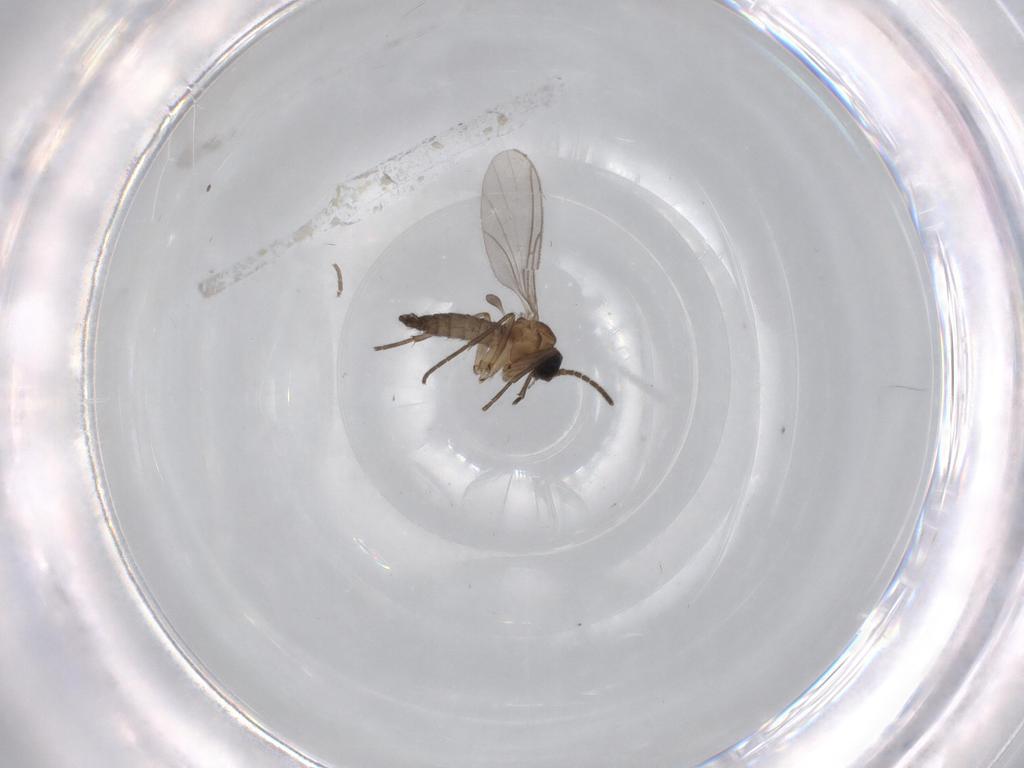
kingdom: Animalia
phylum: Arthropoda
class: Insecta
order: Diptera
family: Sciaridae
